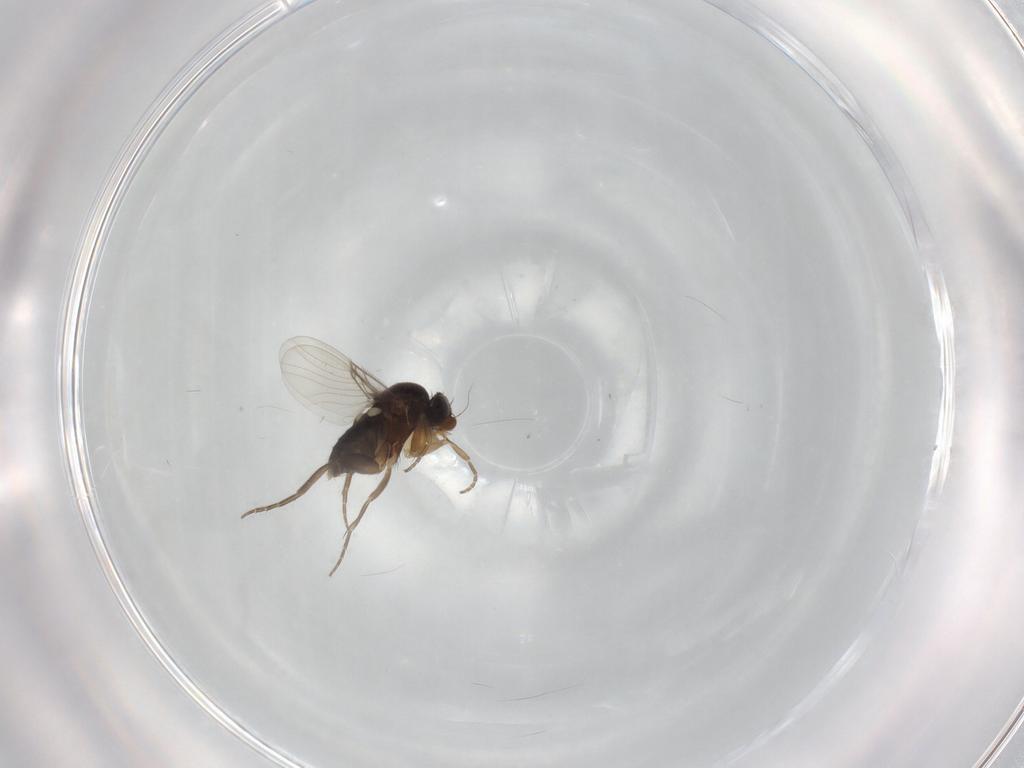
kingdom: Animalia
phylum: Arthropoda
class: Insecta
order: Diptera
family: Phoridae
